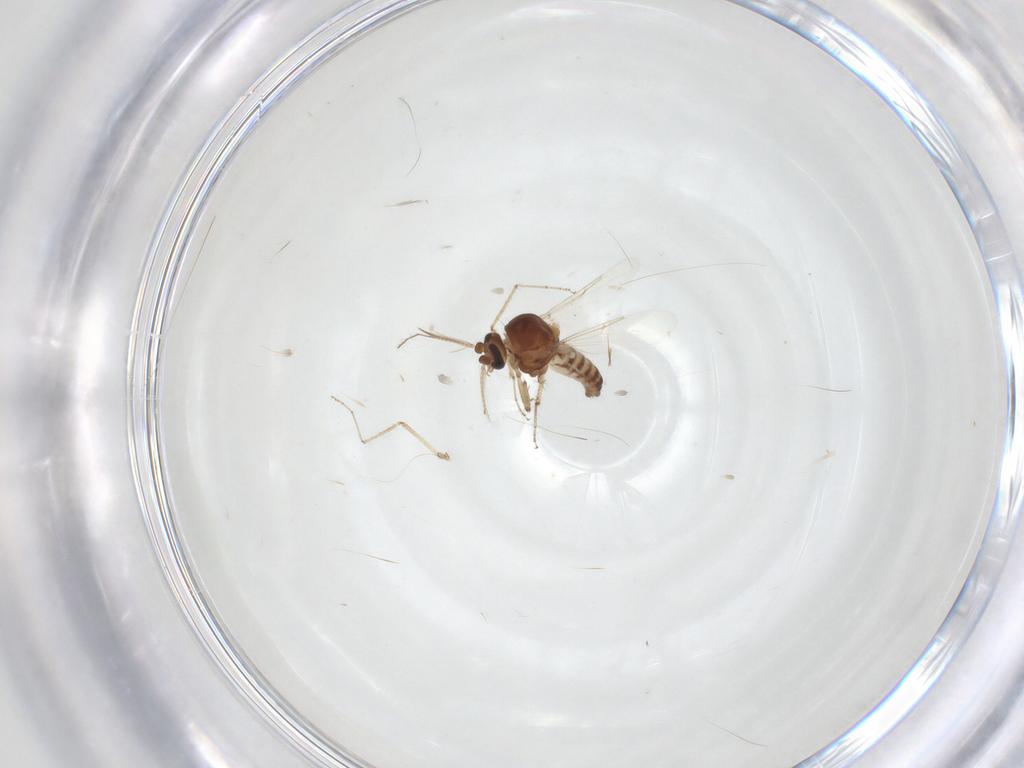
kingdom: Animalia
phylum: Arthropoda
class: Insecta
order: Diptera
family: Ceratopogonidae
